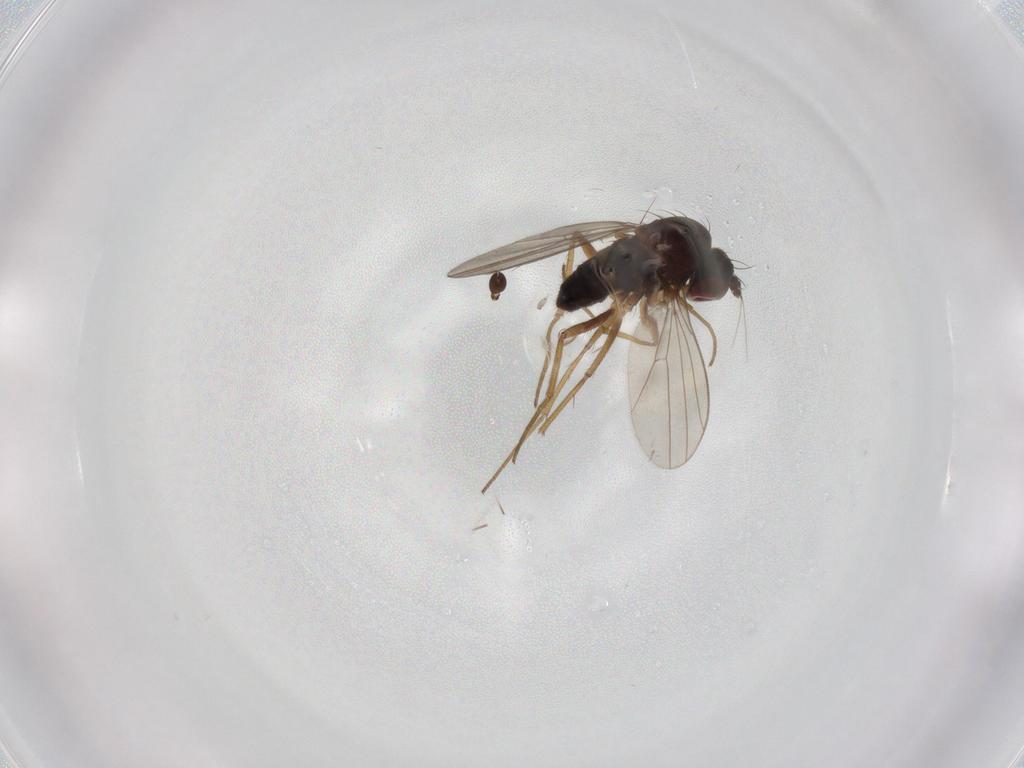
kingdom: Animalia
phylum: Arthropoda
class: Insecta
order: Diptera
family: Dolichopodidae
